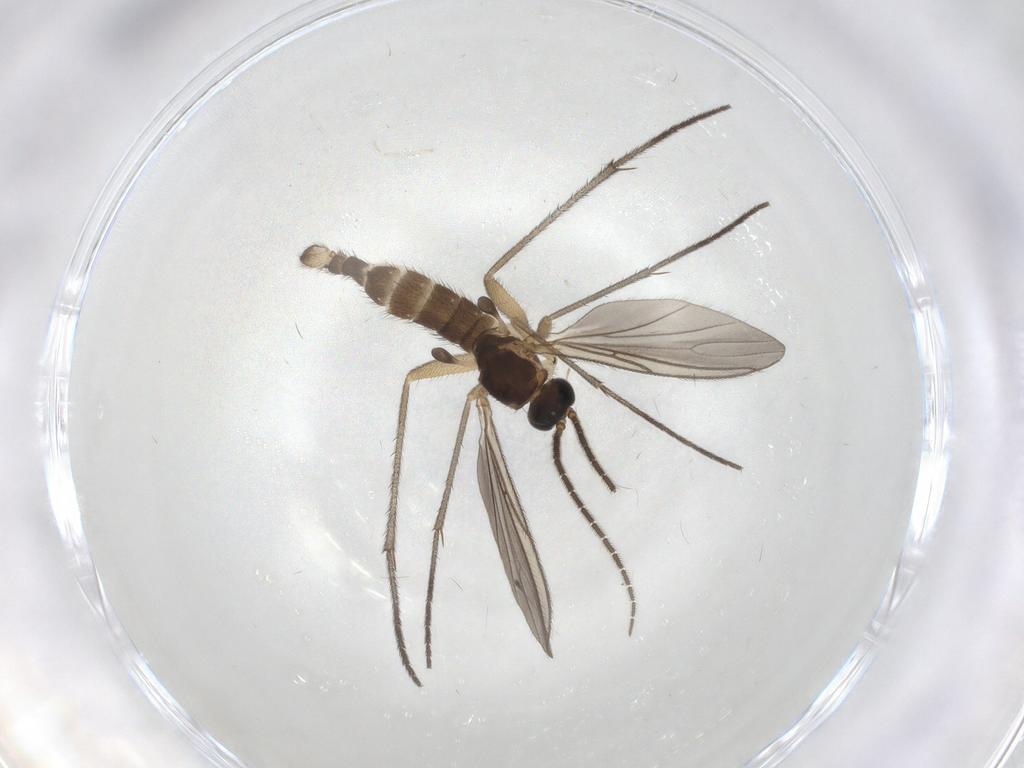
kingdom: Animalia
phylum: Arthropoda
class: Insecta
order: Diptera
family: Sciaridae
